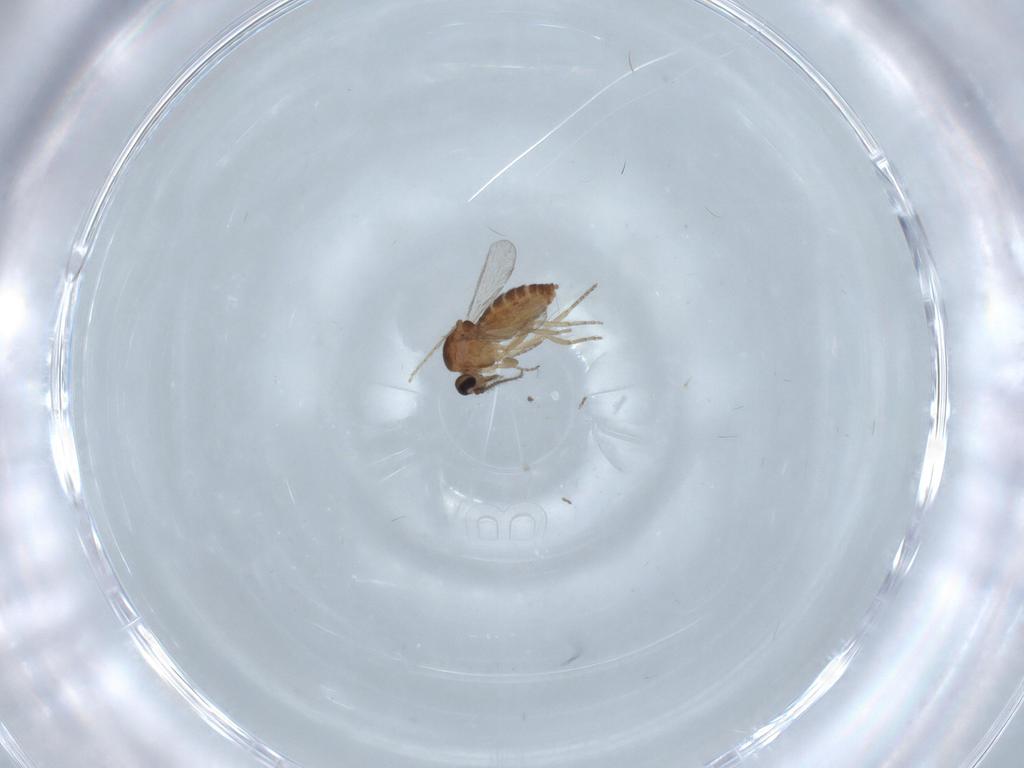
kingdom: Animalia
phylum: Arthropoda
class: Insecta
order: Diptera
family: Ceratopogonidae
